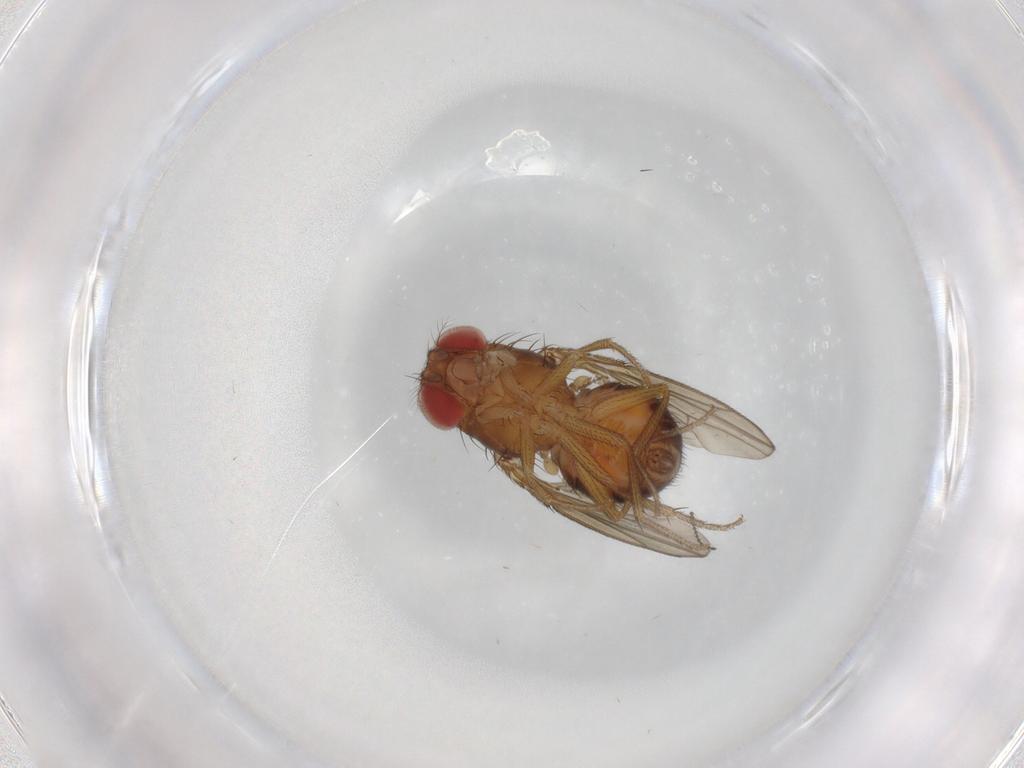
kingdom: Animalia
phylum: Arthropoda
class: Insecta
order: Diptera
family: Drosophilidae
